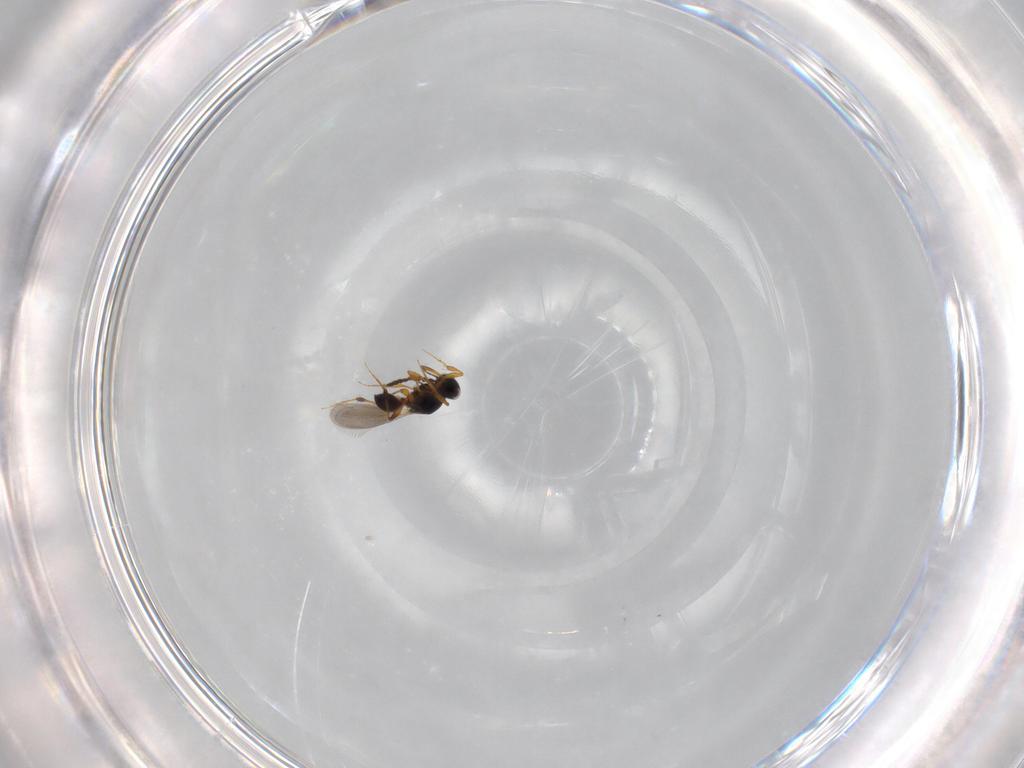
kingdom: Animalia
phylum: Arthropoda
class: Insecta
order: Hymenoptera
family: Platygastridae
